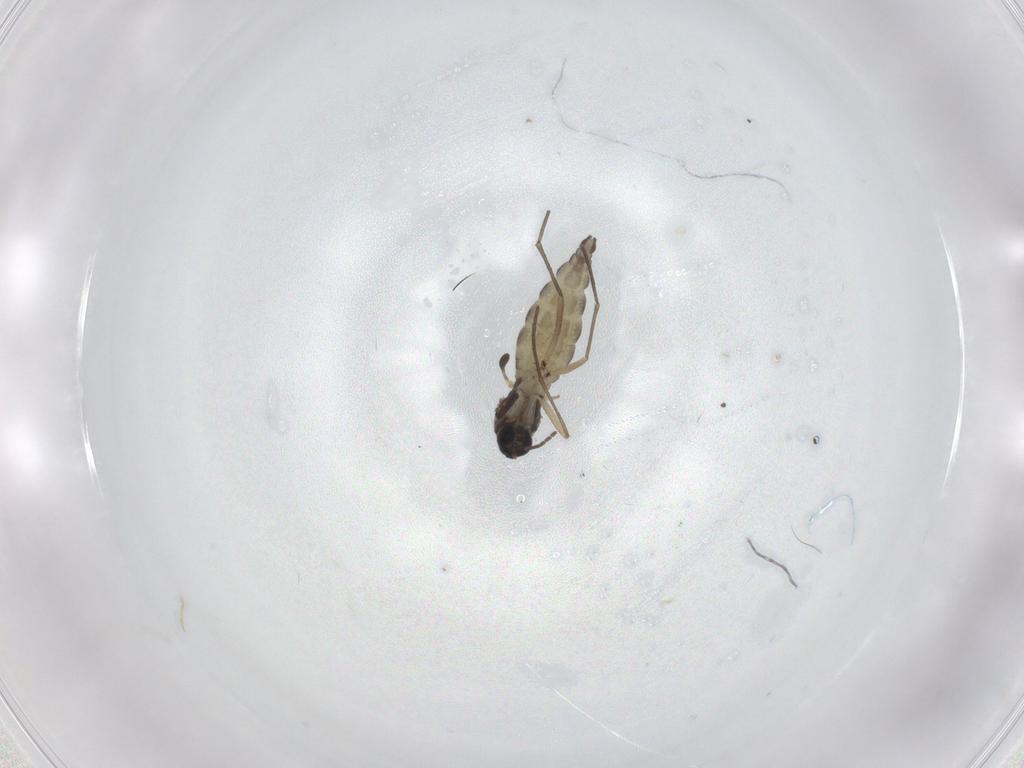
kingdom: Animalia
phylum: Arthropoda
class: Insecta
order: Diptera
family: Sciaridae
